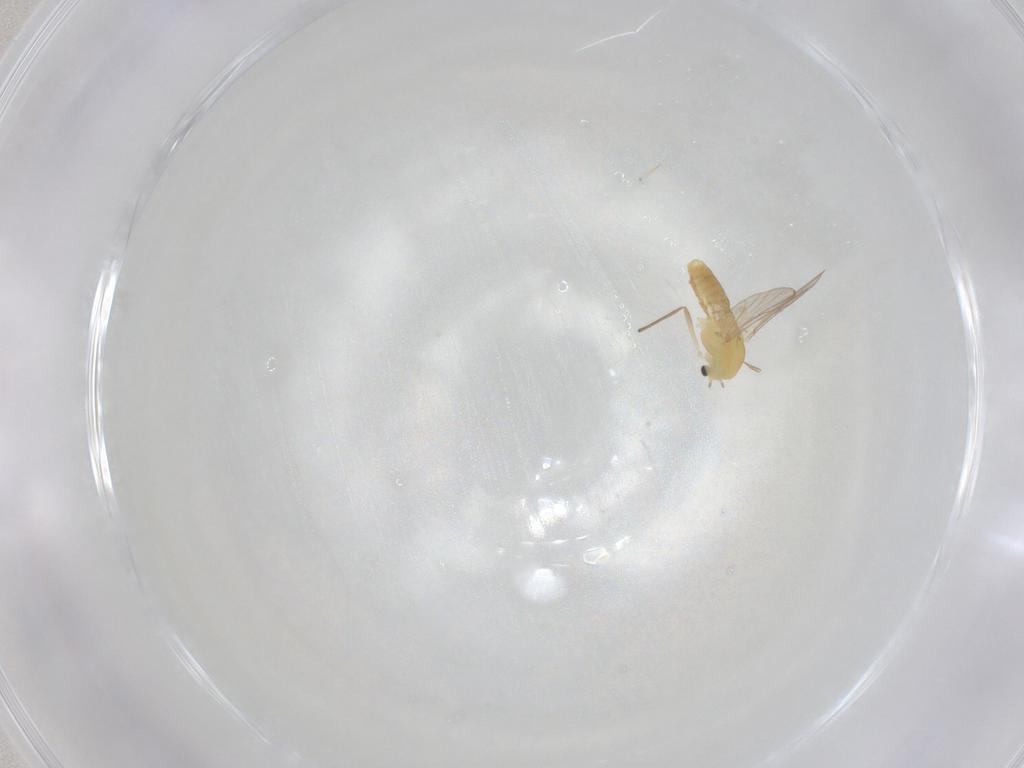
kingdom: Animalia
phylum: Arthropoda
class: Insecta
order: Diptera
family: Chironomidae
